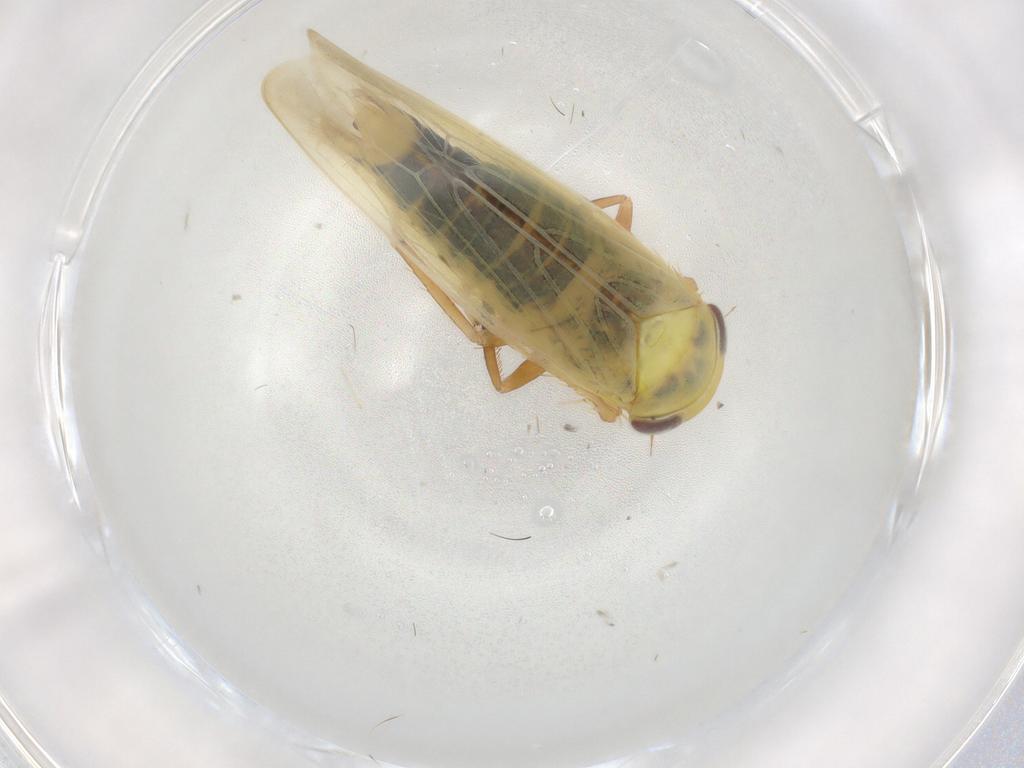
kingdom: Animalia
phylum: Arthropoda
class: Insecta
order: Hemiptera
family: Cicadellidae
